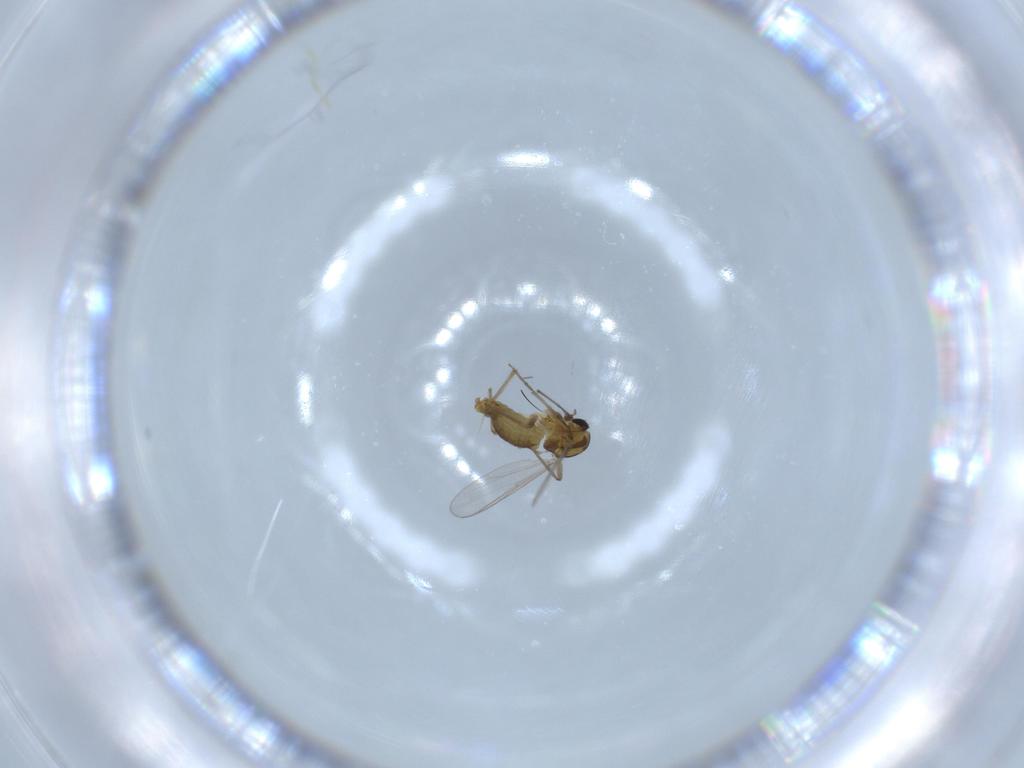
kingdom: Animalia
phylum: Arthropoda
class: Insecta
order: Diptera
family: Chironomidae
